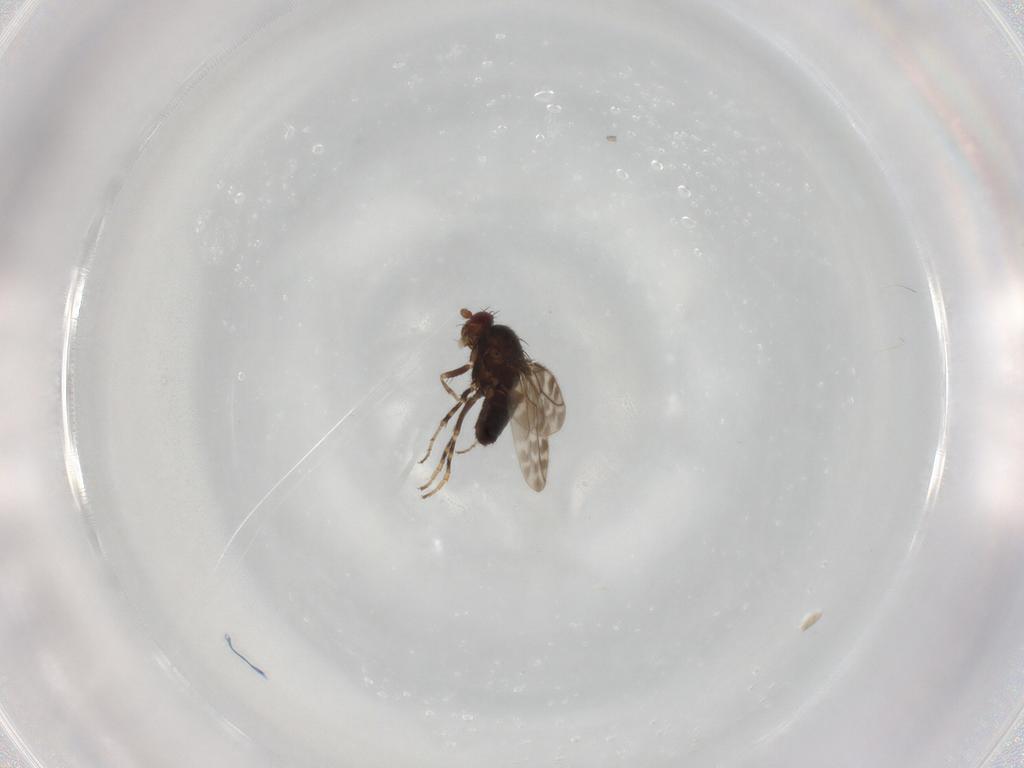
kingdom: Animalia
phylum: Arthropoda
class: Insecta
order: Diptera
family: Sphaeroceridae
